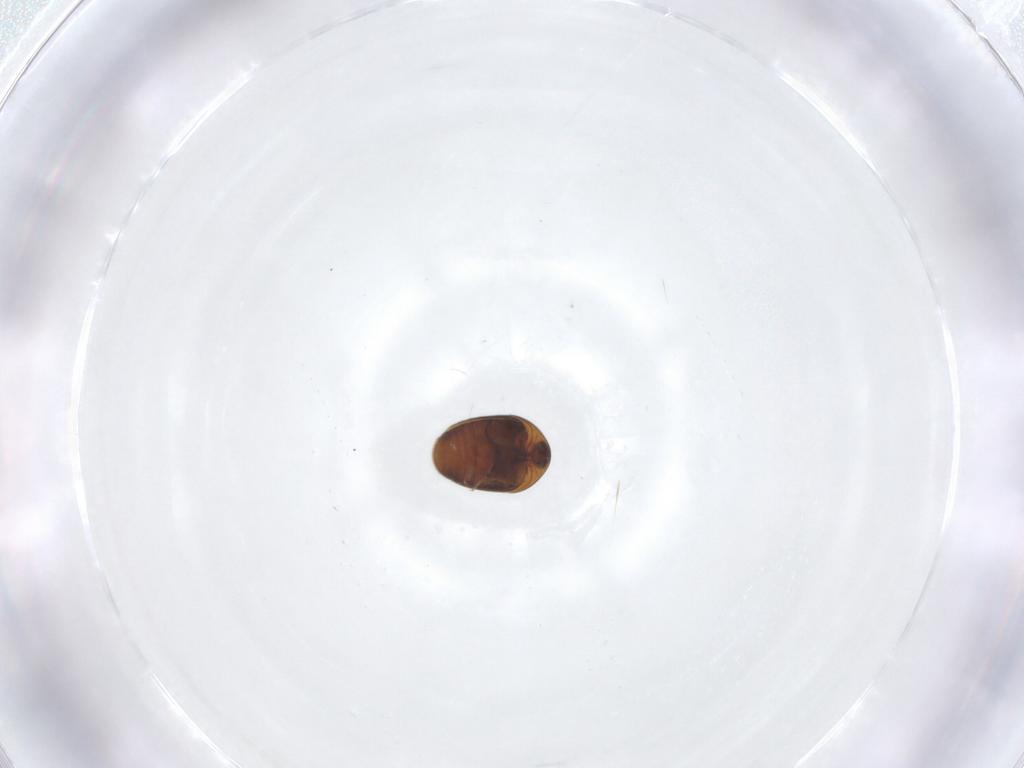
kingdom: Animalia
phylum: Arthropoda
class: Insecta
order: Coleoptera
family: Corylophidae
